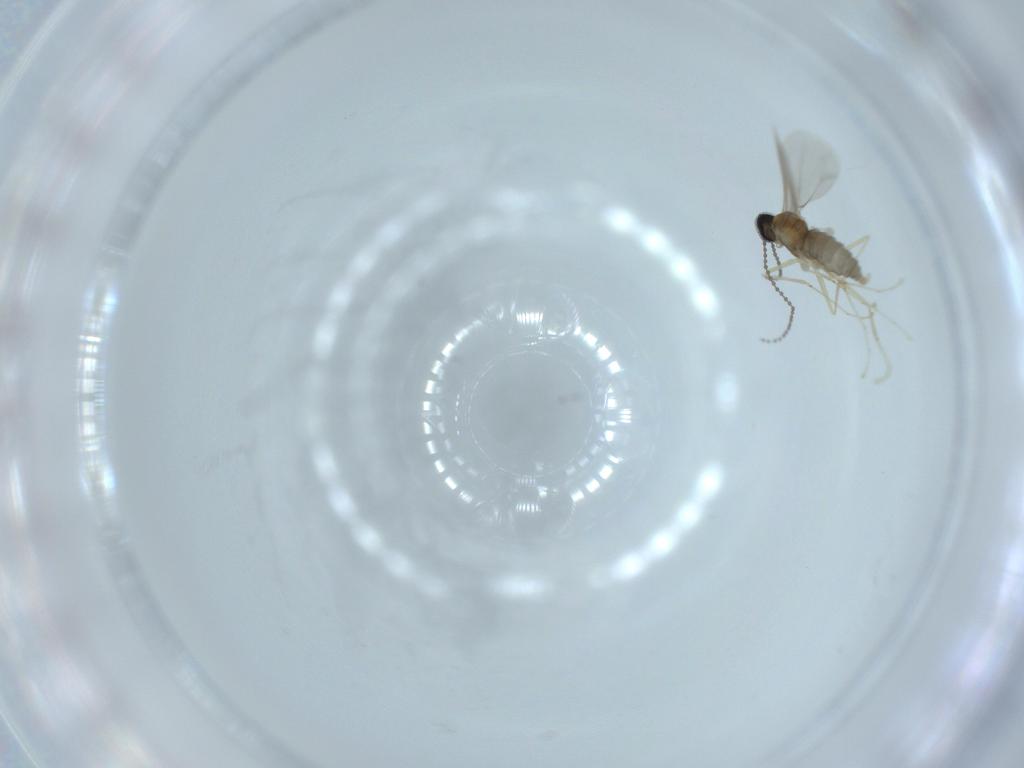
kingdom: Animalia
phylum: Arthropoda
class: Insecta
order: Diptera
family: Cecidomyiidae
